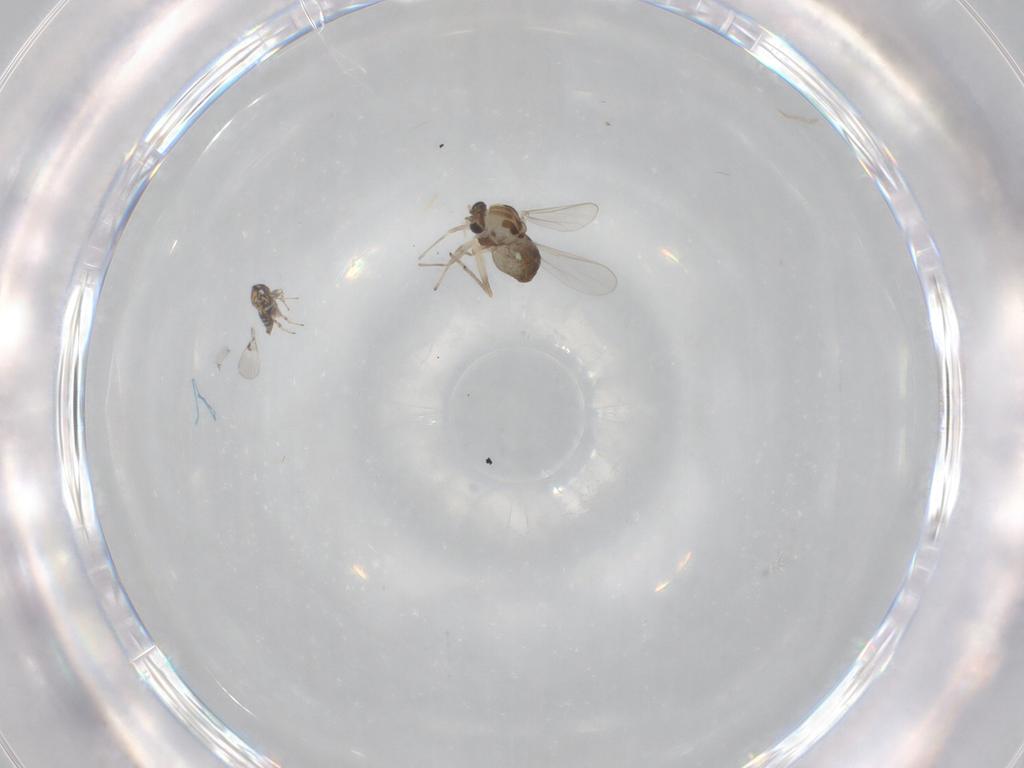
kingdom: Animalia
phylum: Arthropoda
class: Insecta
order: Diptera
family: Chironomidae
